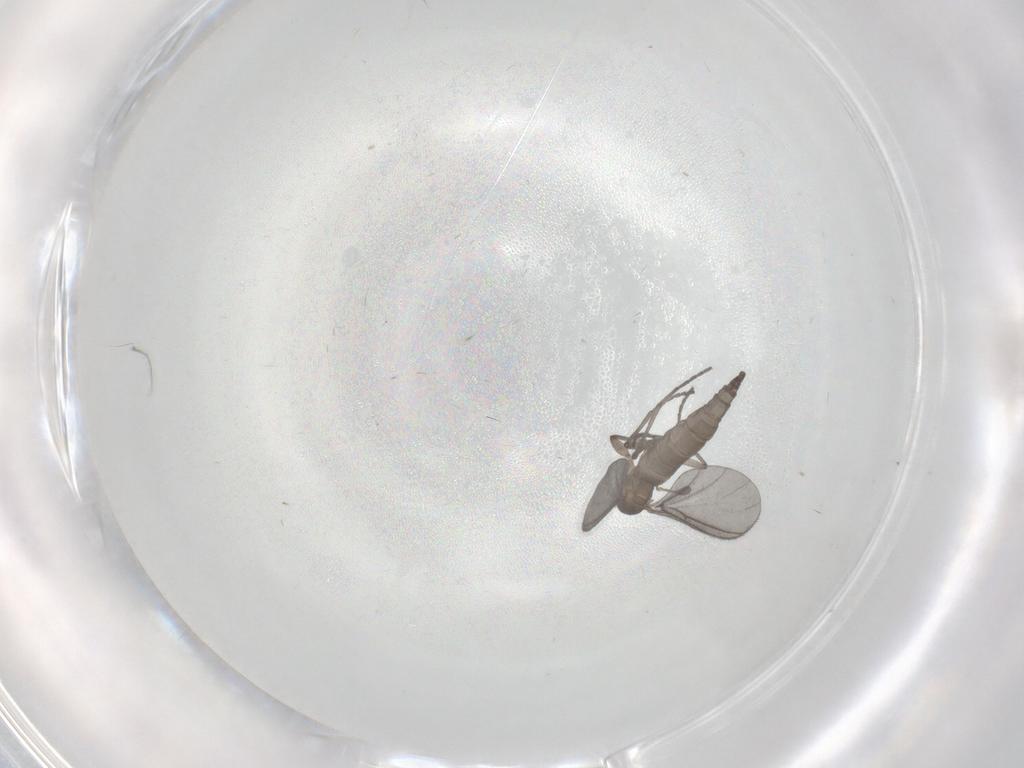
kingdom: Animalia
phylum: Arthropoda
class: Insecta
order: Diptera
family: Sciaridae
